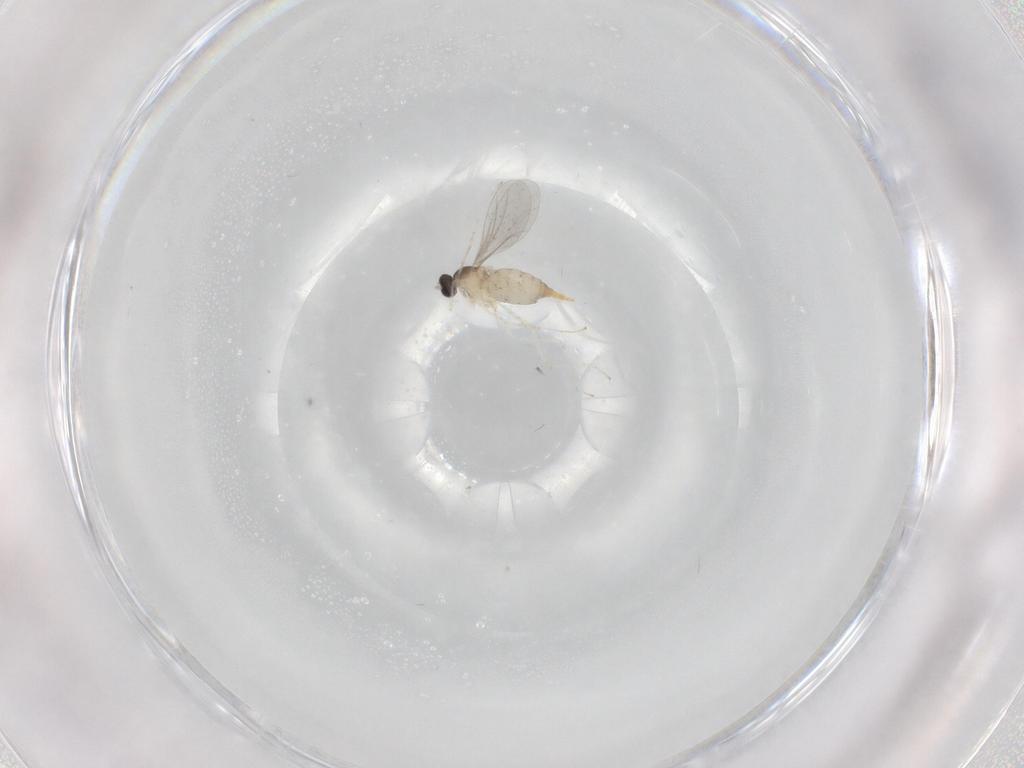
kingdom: Animalia
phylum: Arthropoda
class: Insecta
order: Diptera
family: Cecidomyiidae
